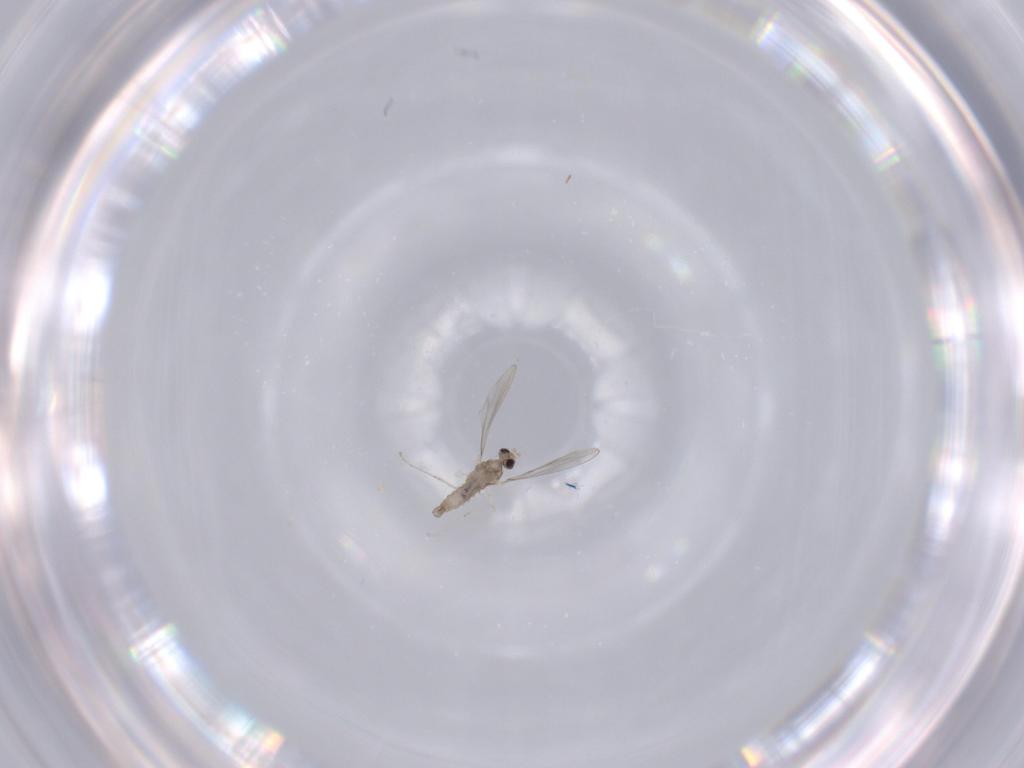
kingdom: Animalia
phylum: Arthropoda
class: Insecta
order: Diptera
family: Cecidomyiidae
